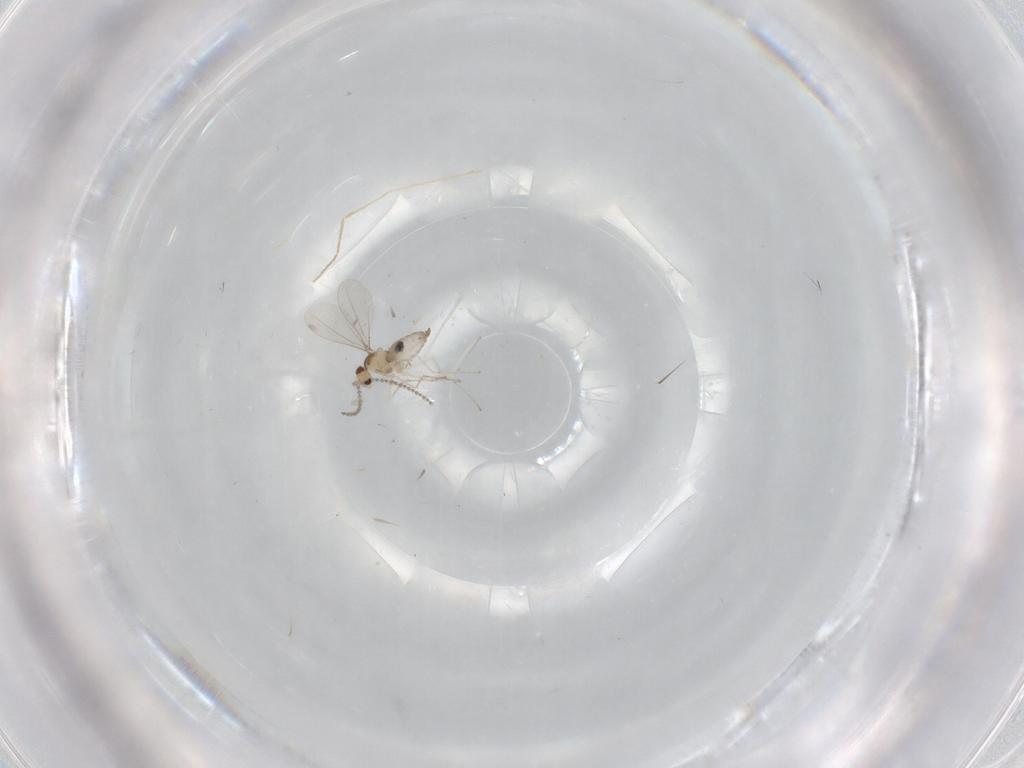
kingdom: Animalia
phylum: Arthropoda
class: Insecta
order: Diptera
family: Cecidomyiidae
